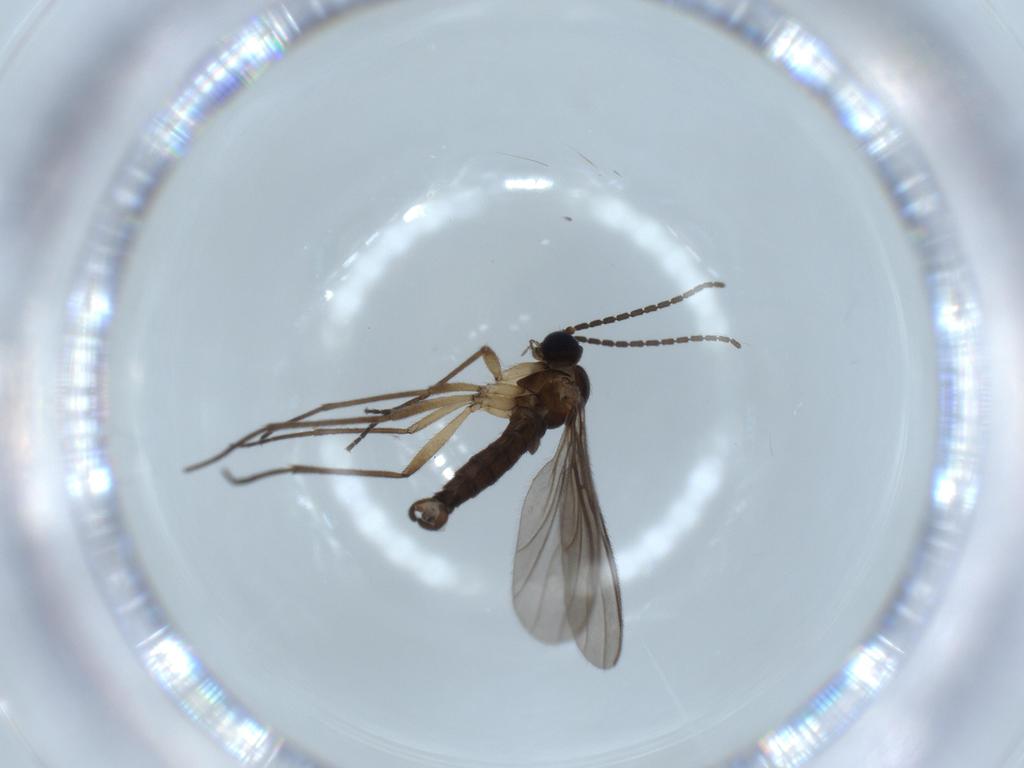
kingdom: Animalia
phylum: Arthropoda
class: Insecta
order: Diptera
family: Sciaridae
